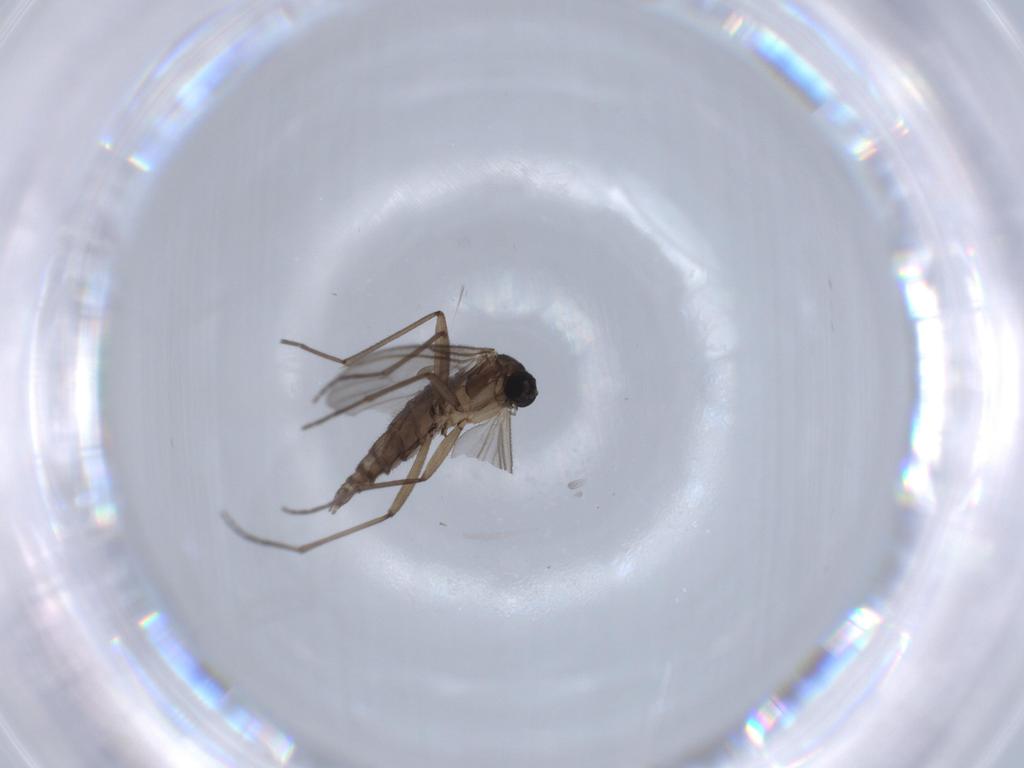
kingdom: Animalia
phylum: Arthropoda
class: Insecta
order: Diptera
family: Sciaridae
